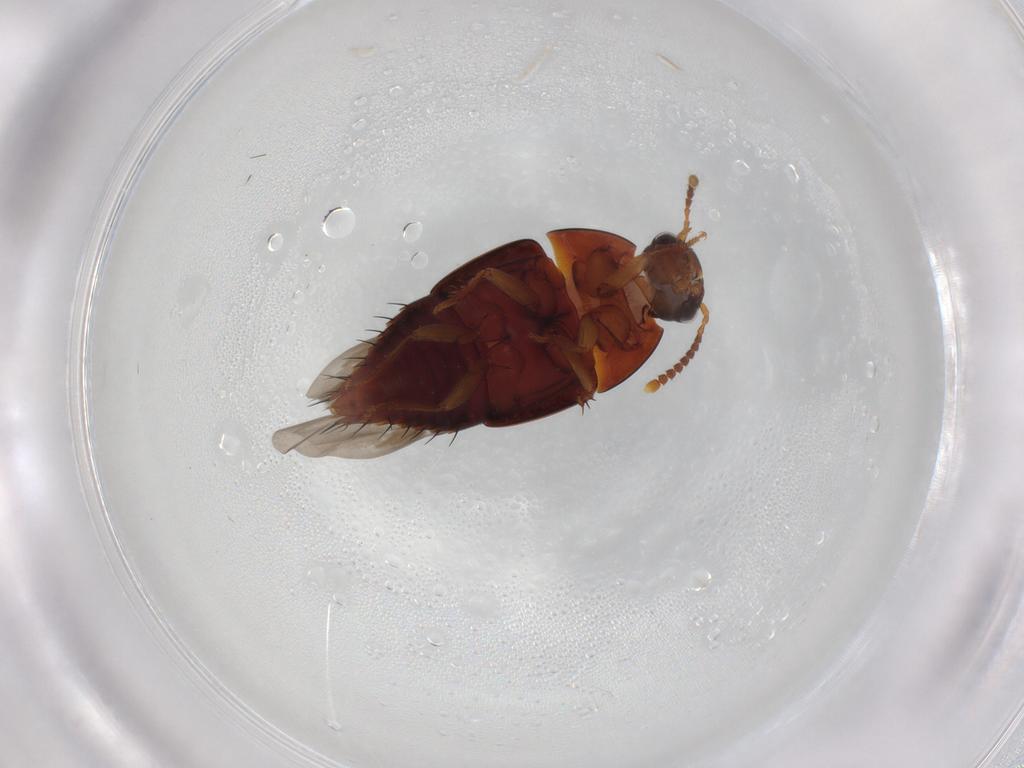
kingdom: Animalia
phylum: Arthropoda
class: Insecta
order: Coleoptera
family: Staphylinidae
